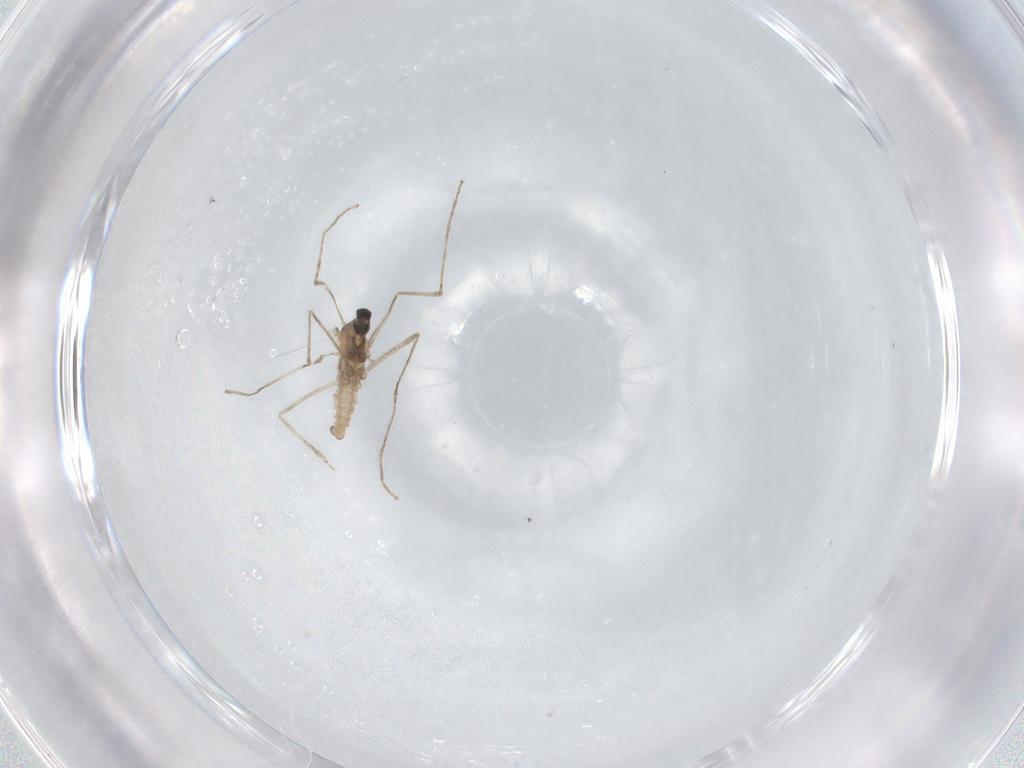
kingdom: Animalia
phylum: Arthropoda
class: Insecta
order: Diptera
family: Cecidomyiidae
